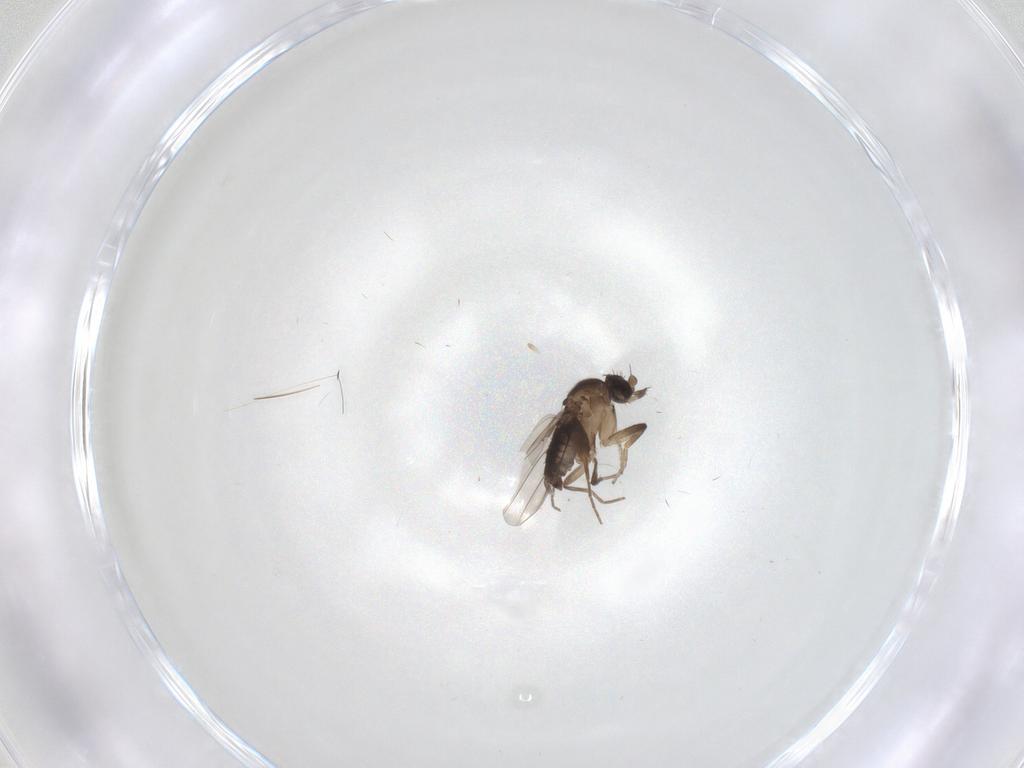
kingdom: Animalia
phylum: Arthropoda
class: Insecta
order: Diptera
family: Phoridae
